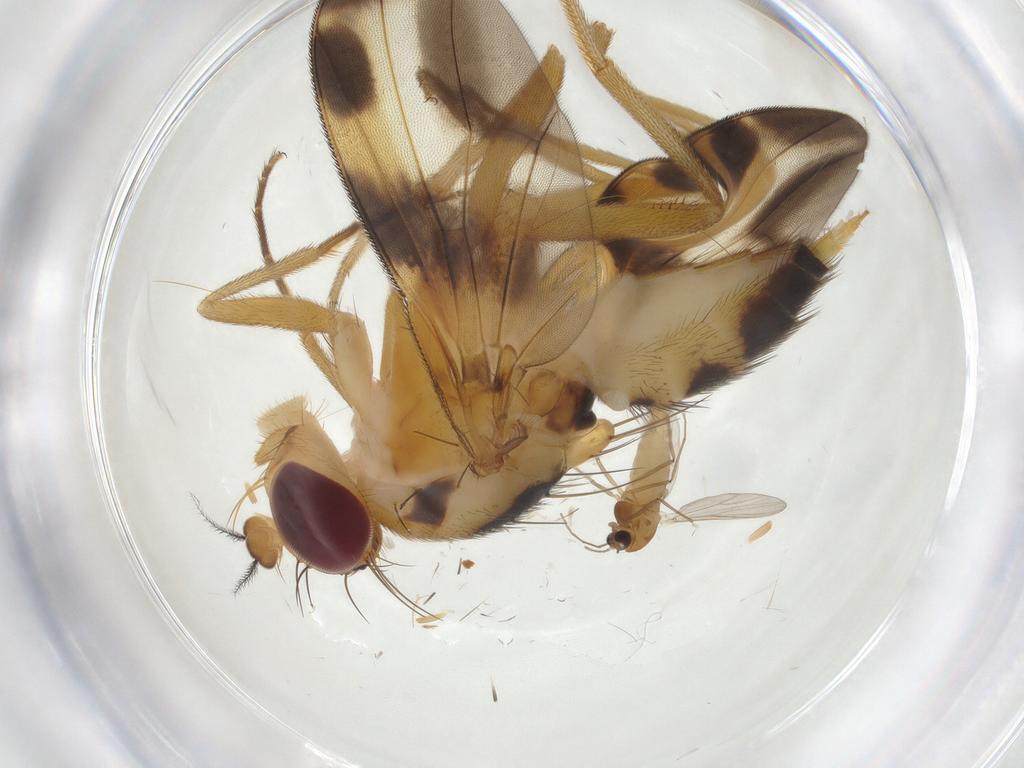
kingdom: Animalia
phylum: Arthropoda
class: Insecta
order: Diptera
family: Clusiidae
